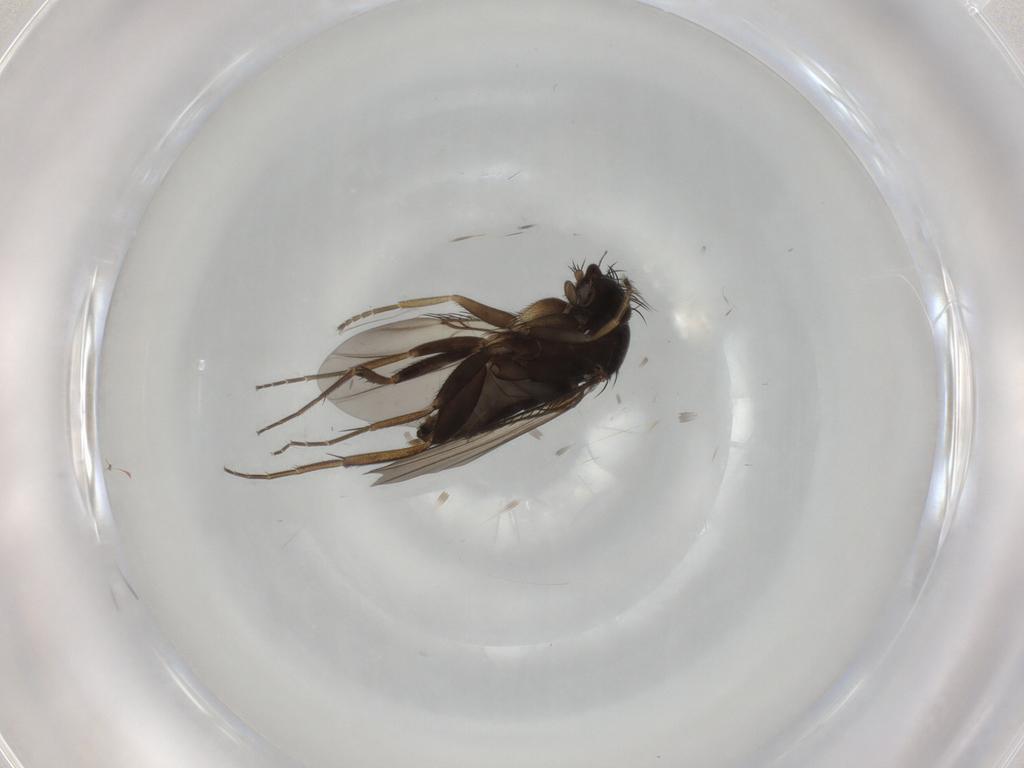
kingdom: Animalia
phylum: Arthropoda
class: Insecta
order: Diptera
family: Phoridae
